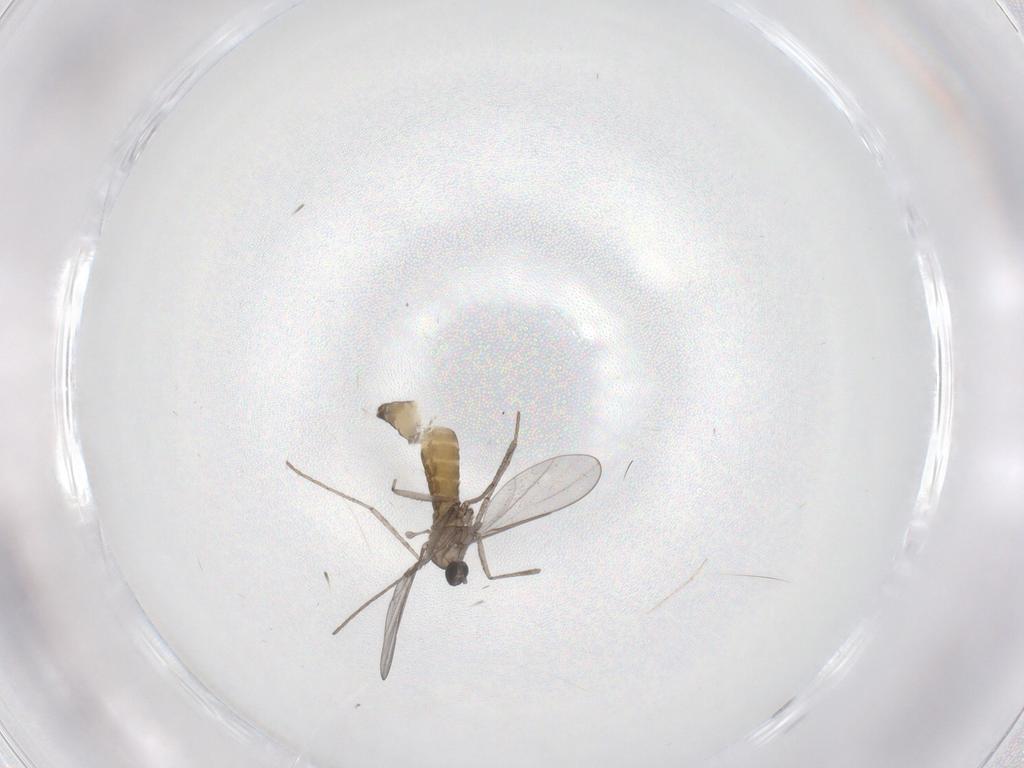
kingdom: Animalia
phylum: Arthropoda
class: Insecta
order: Diptera
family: Cecidomyiidae
